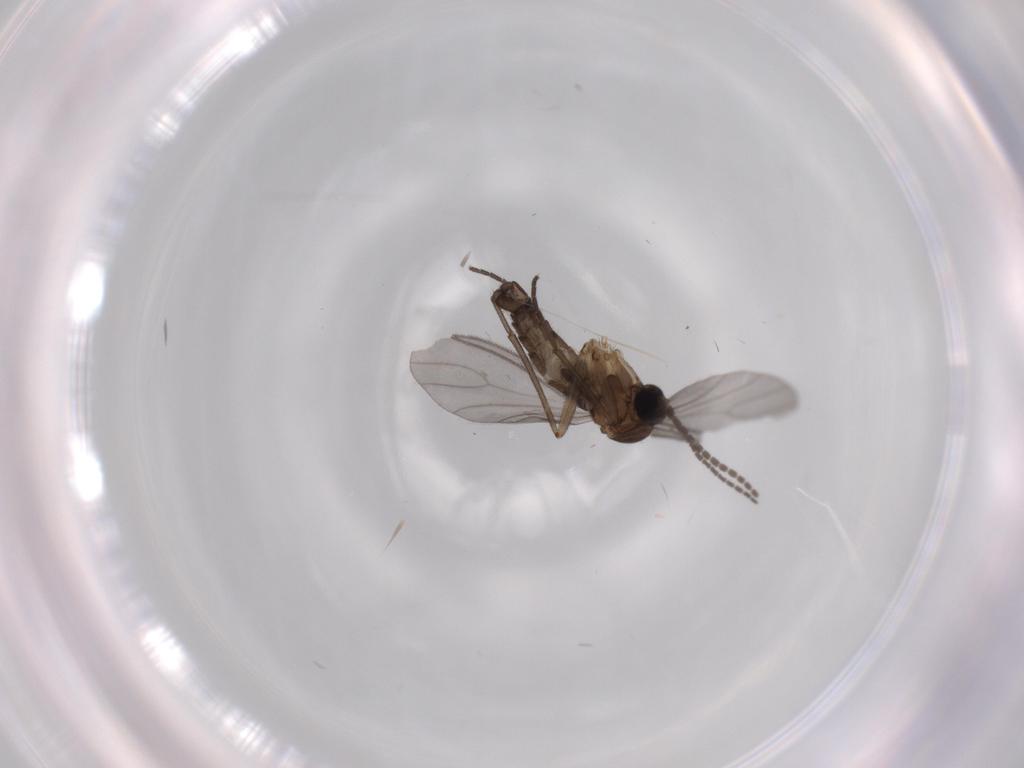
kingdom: Animalia
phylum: Arthropoda
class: Insecta
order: Diptera
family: Sciaridae
